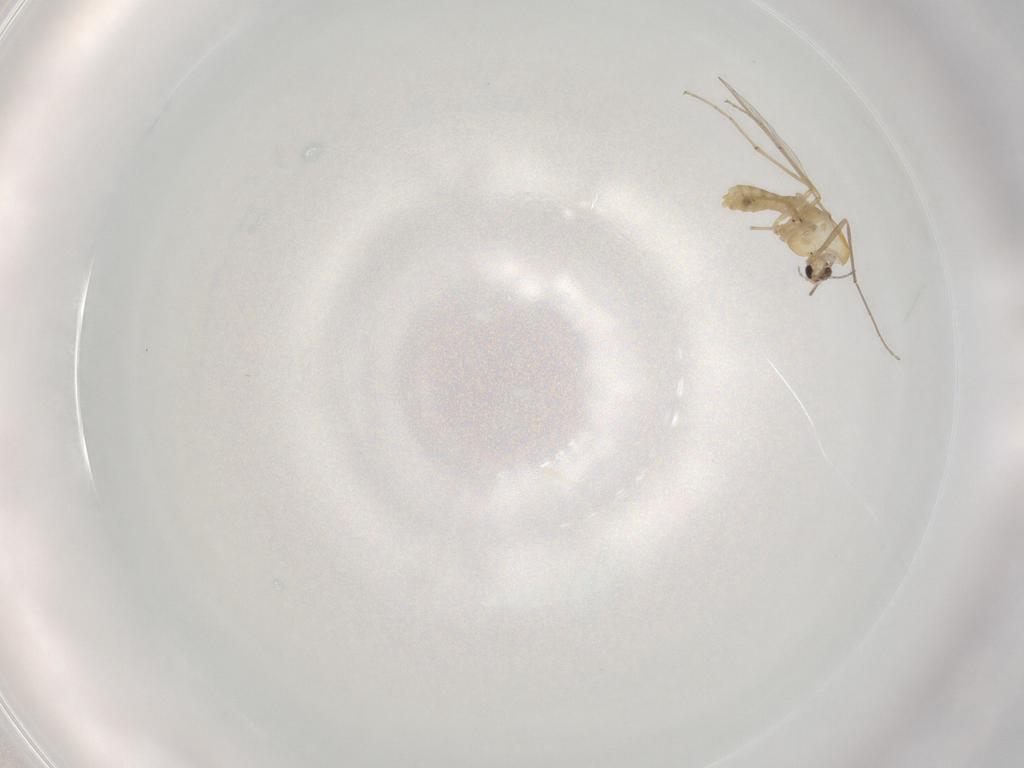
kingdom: Animalia
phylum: Arthropoda
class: Insecta
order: Diptera
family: Chironomidae
